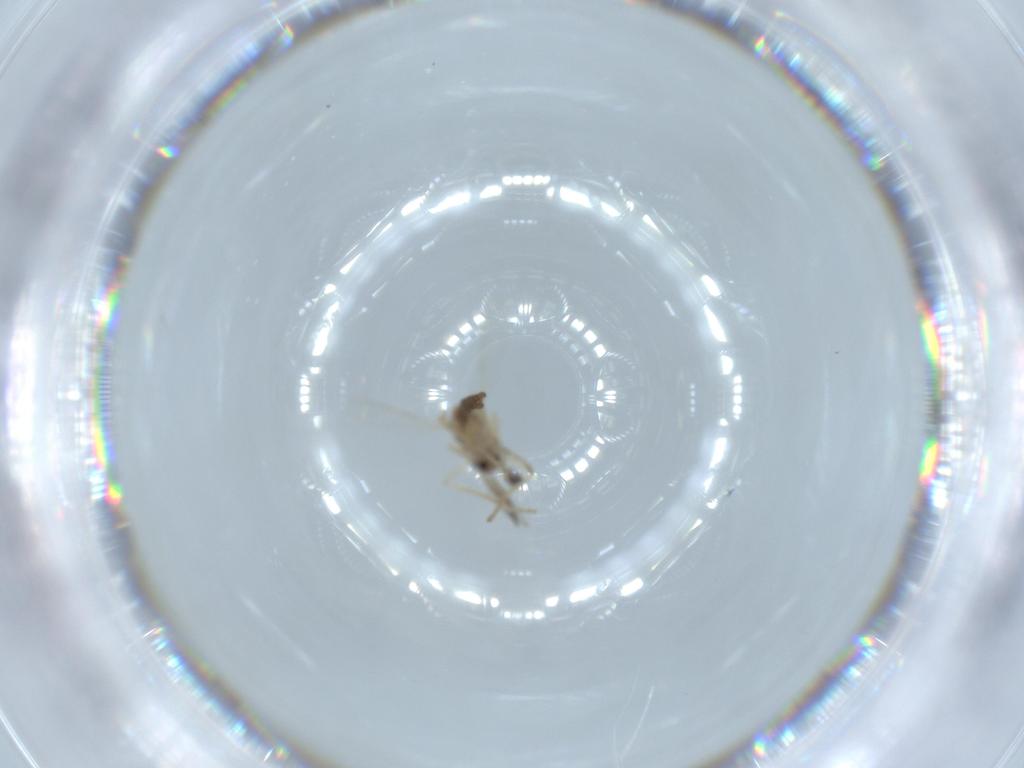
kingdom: Animalia
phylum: Arthropoda
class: Insecta
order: Diptera
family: Ceratopogonidae
